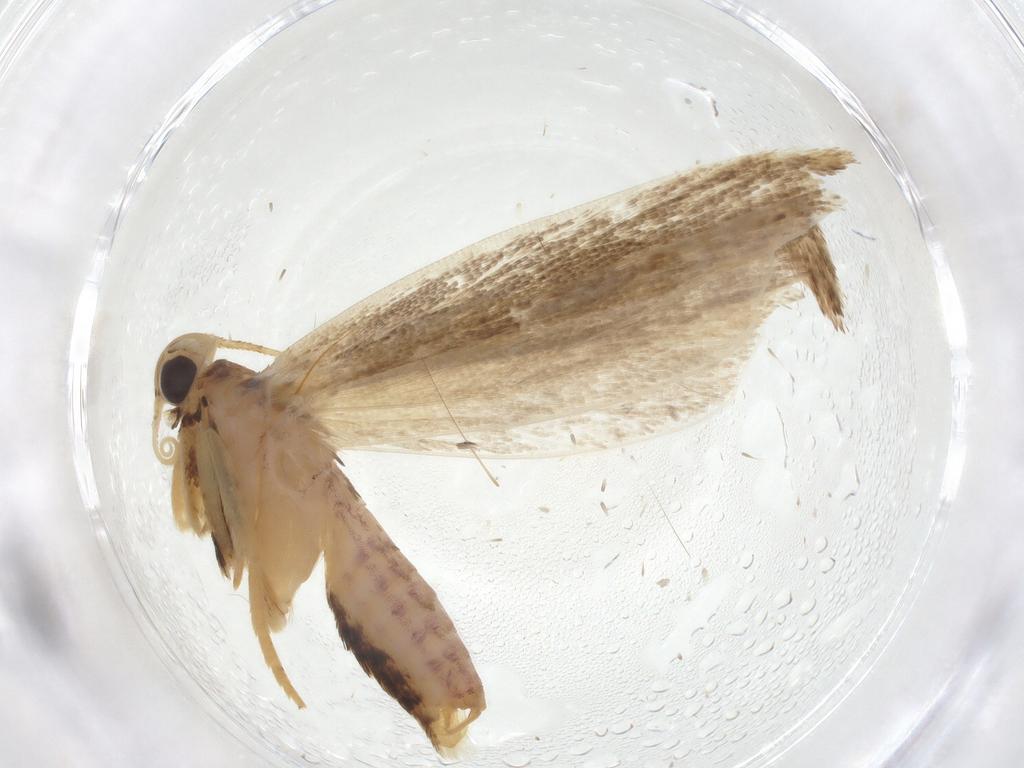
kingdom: Animalia
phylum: Arthropoda
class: Insecta
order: Lepidoptera
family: Gelechiidae
